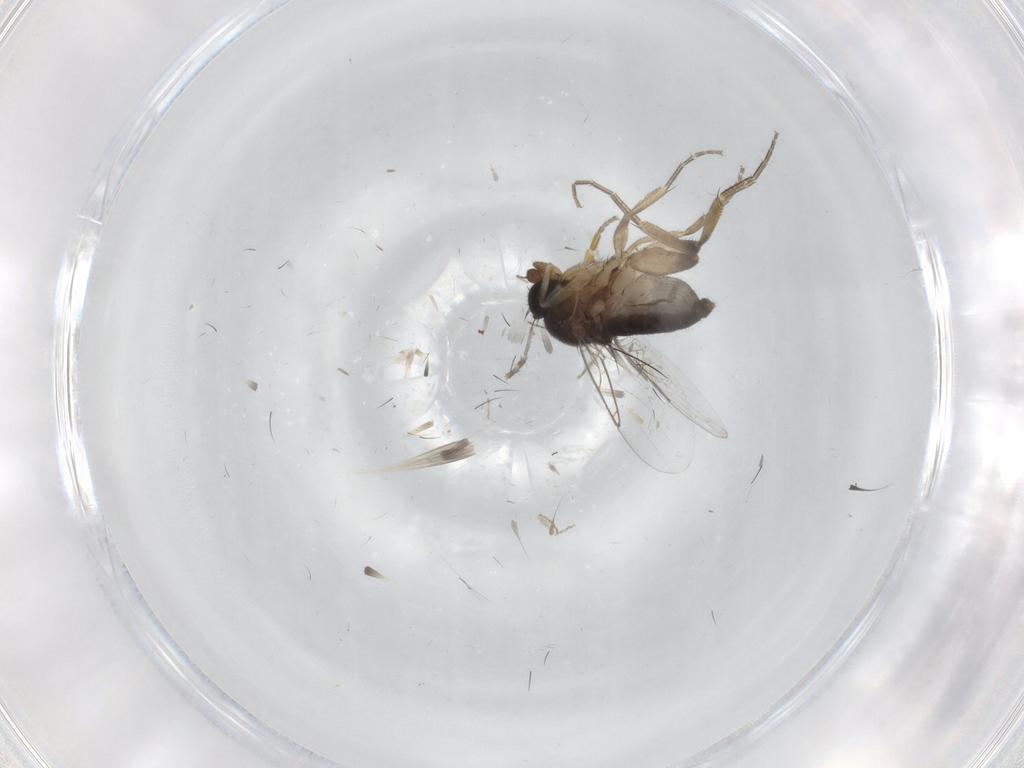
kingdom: Animalia
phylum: Arthropoda
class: Insecta
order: Diptera
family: Phoridae
